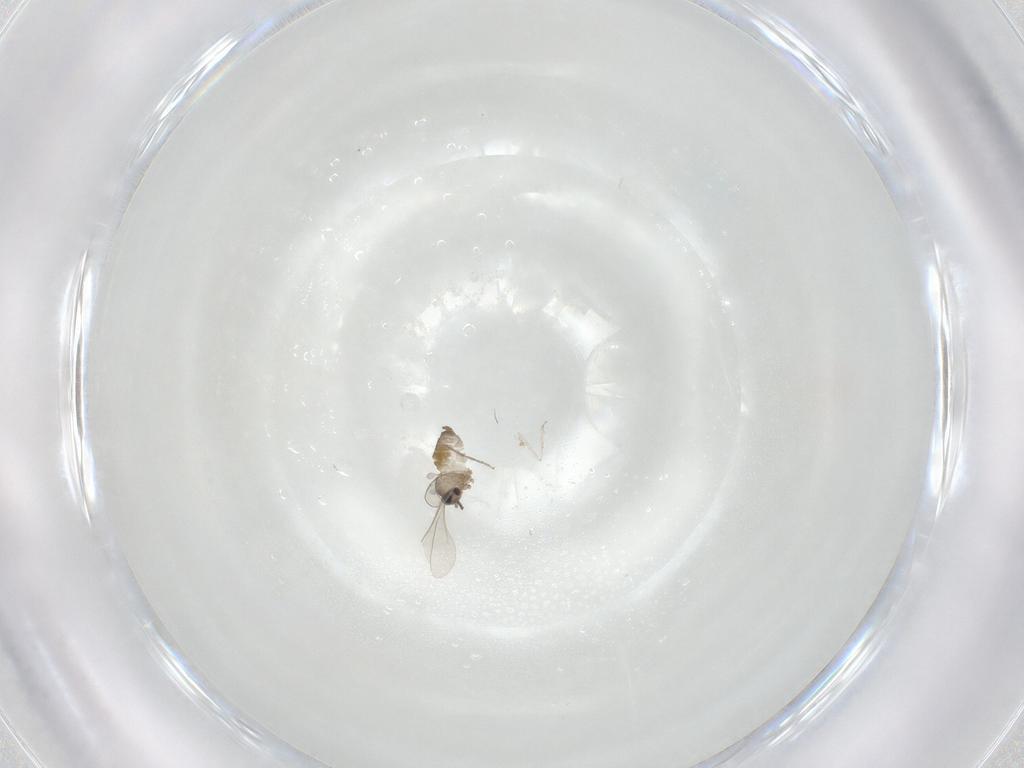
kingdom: Animalia
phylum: Arthropoda
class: Insecta
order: Diptera
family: Cecidomyiidae
